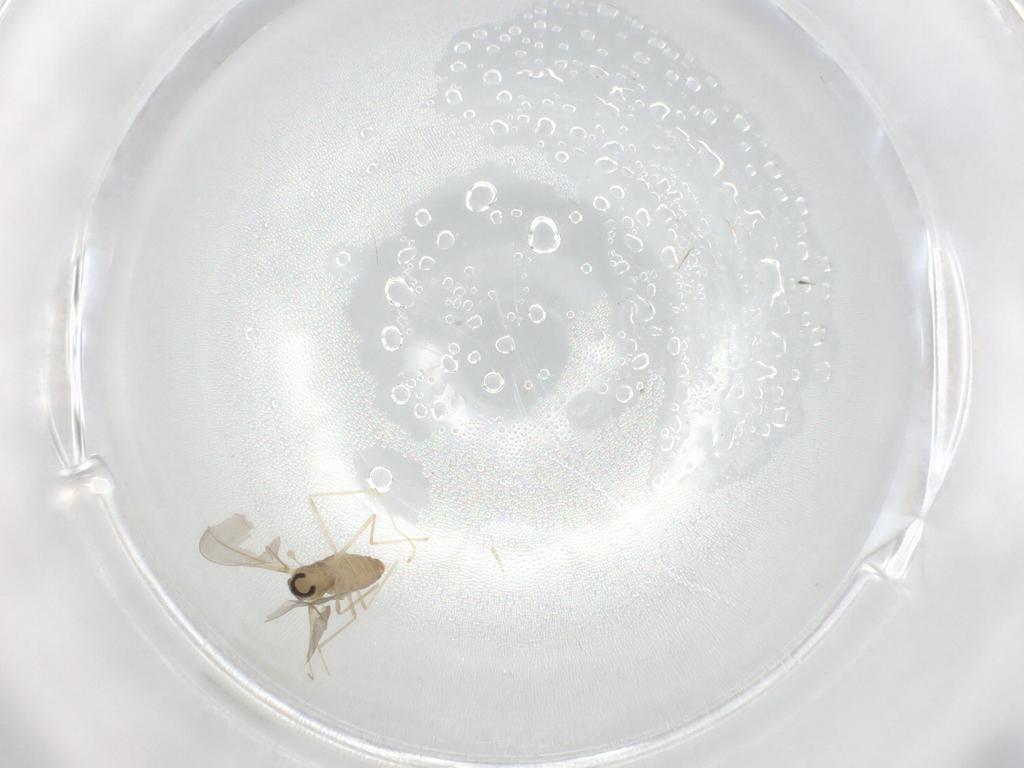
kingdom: Animalia
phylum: Arthropoda
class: Insecta
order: Diptera
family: Cecidomyiidae
